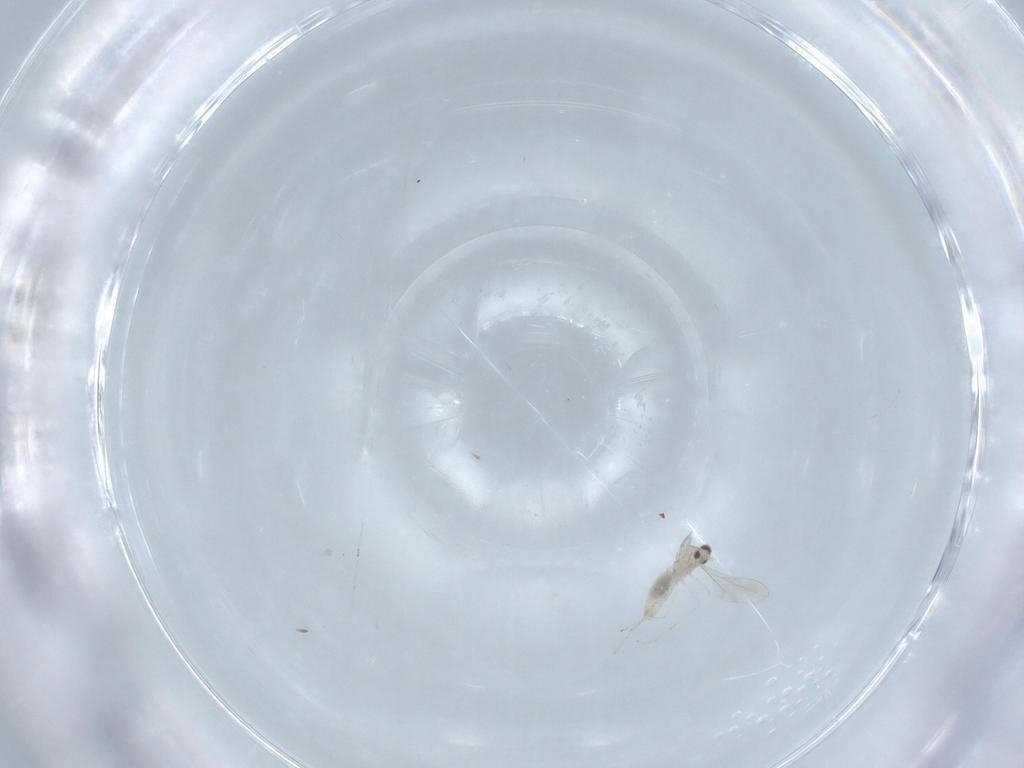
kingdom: Animalia
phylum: Arthropoda
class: Insecta
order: Diptera
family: Cecidomyiidae
